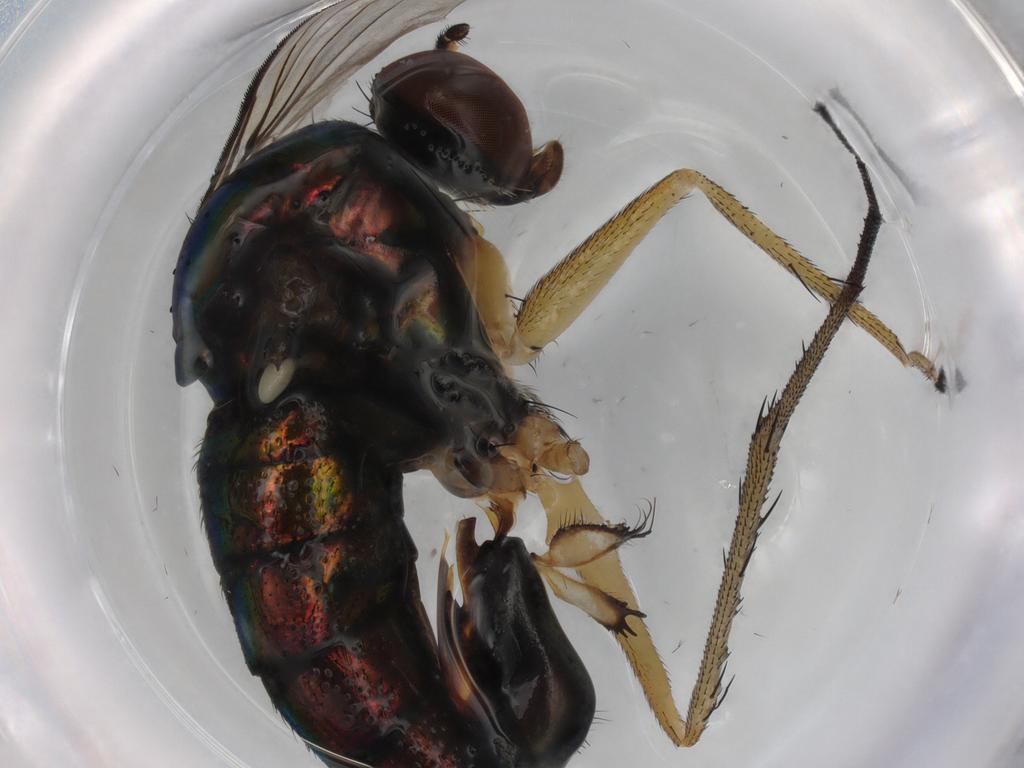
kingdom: Animalia
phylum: Arthropoda
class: Insecta
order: Diptera
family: Dolichopodidae
